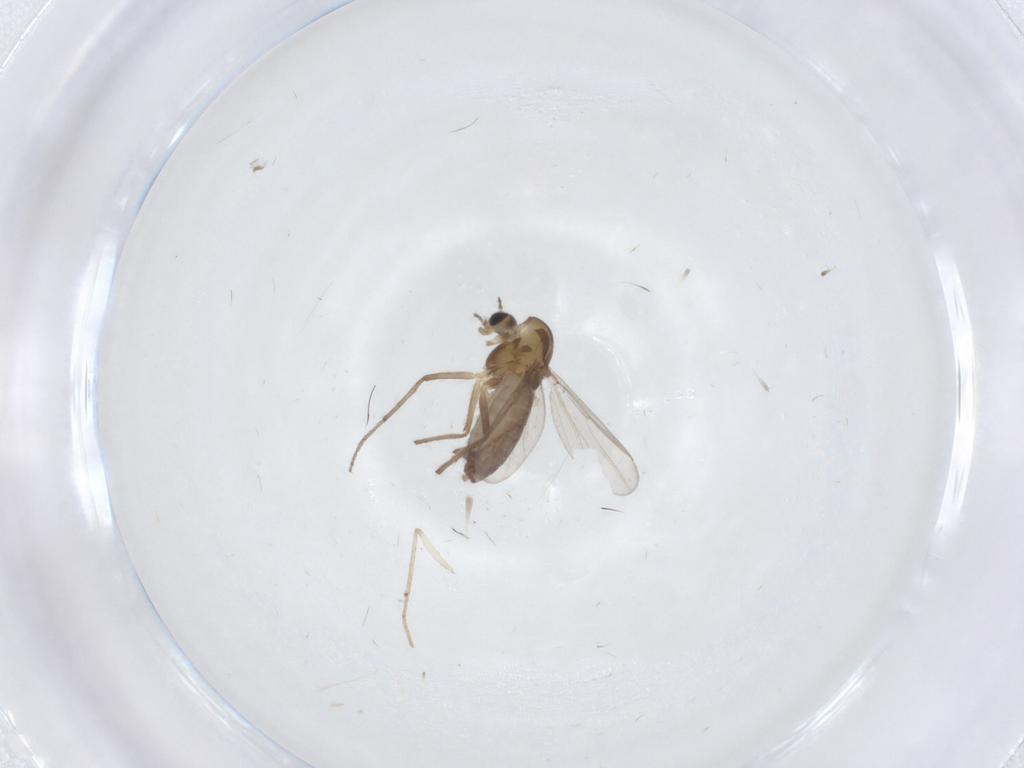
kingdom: Animalia
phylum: Arthropoda
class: Insecta
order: Diptera
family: Chironomidae
